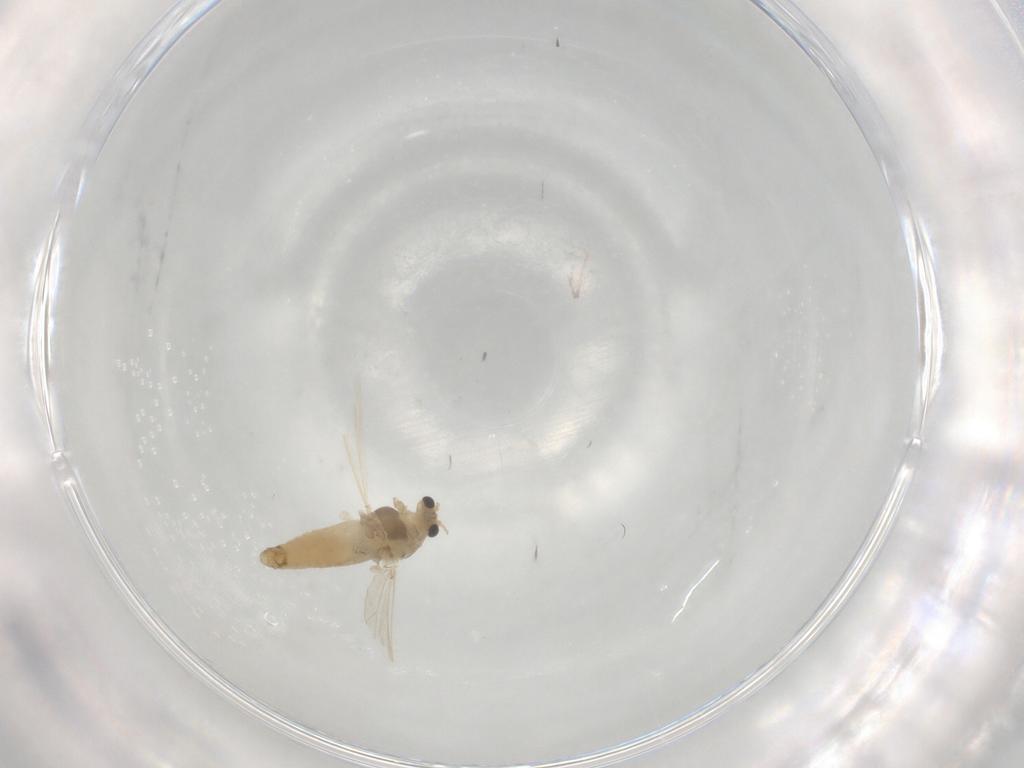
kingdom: Animalia
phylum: Arthropoda
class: Insecta
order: Diptera
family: Chironomidae
